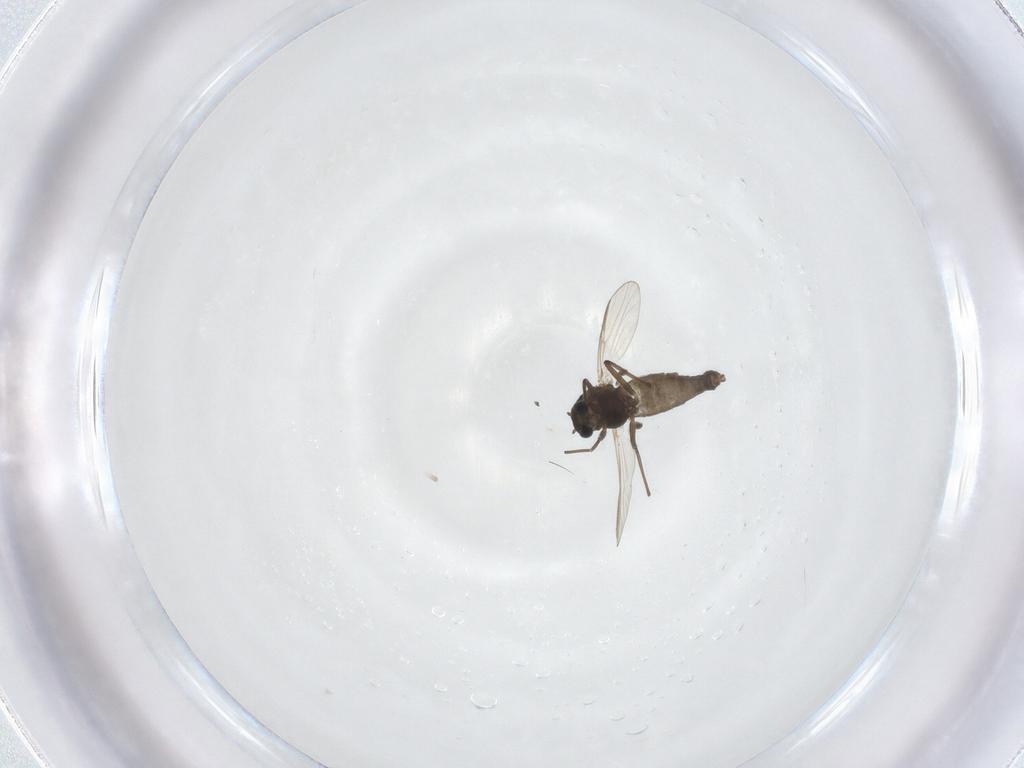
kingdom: Animalia
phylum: Arthropoda
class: Insecta
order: Diptera
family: Chironomidae
